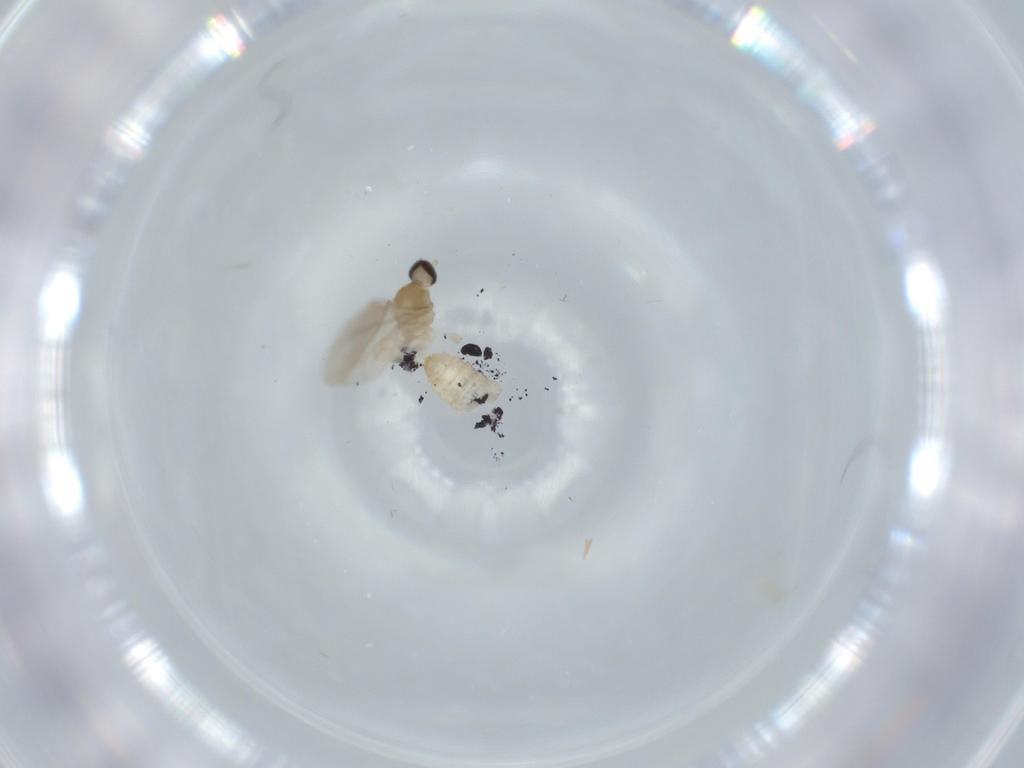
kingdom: Animalia
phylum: Arthropoda
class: Insecta
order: Diptera
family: Cecidomyiidae
